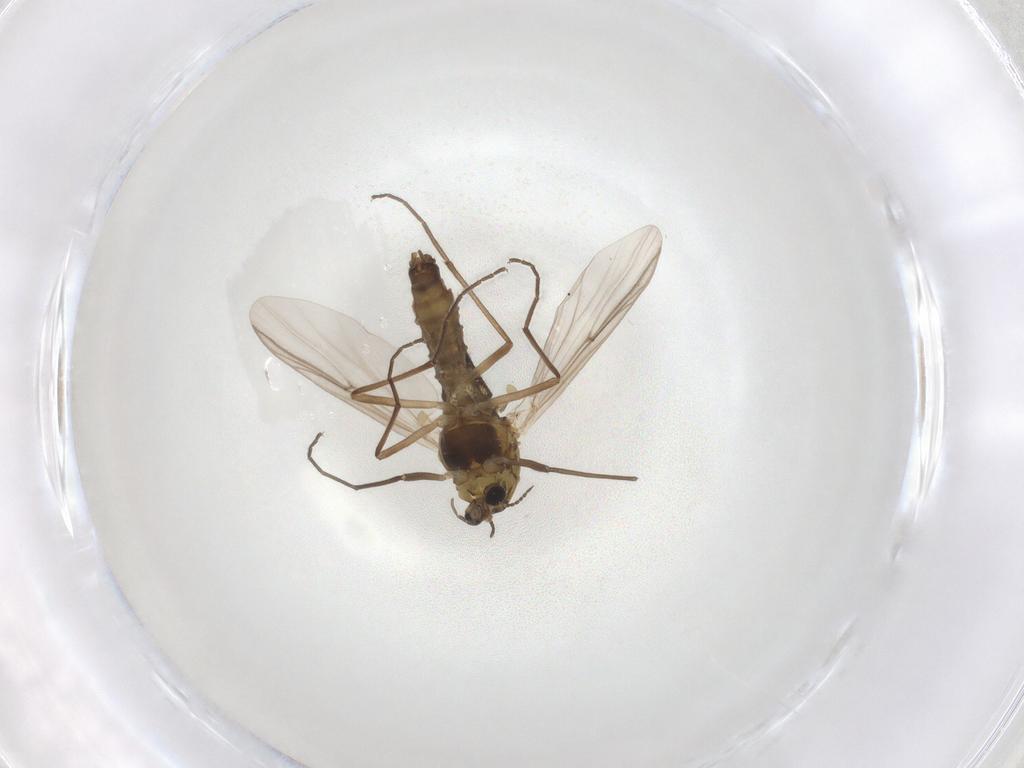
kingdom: Animalia
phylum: Arthropoda
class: Insecta
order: Diptera
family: Chironomidae
